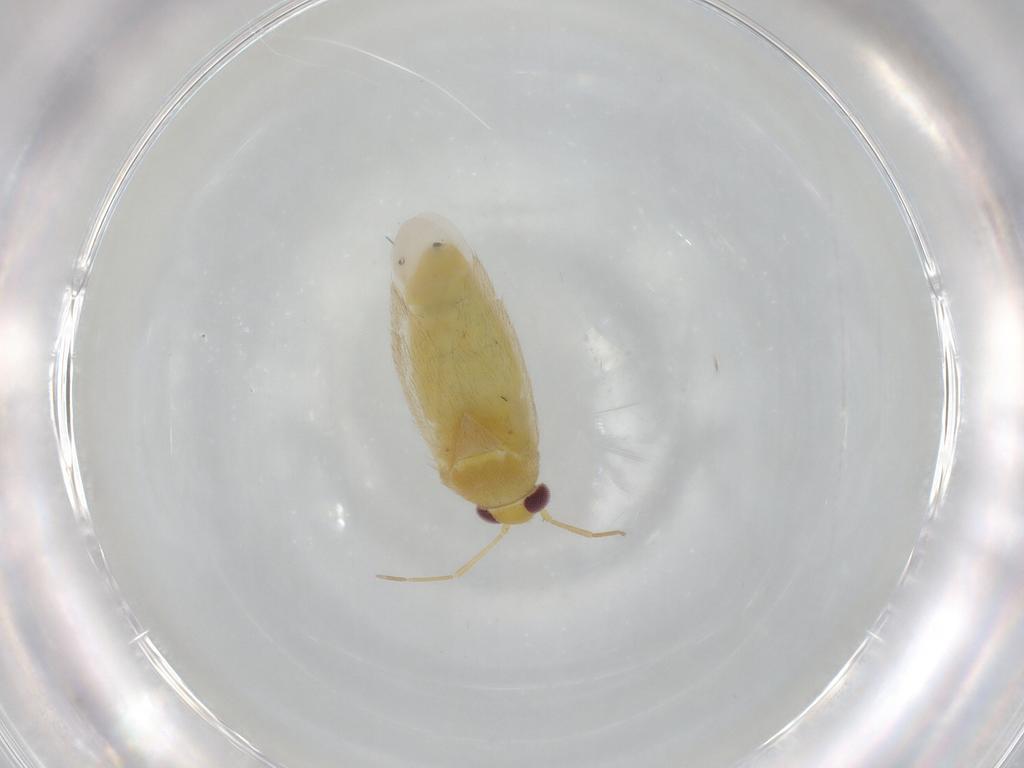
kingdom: Animalia
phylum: Arthropoda
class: Insecta
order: Hemiptera
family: Miridae
